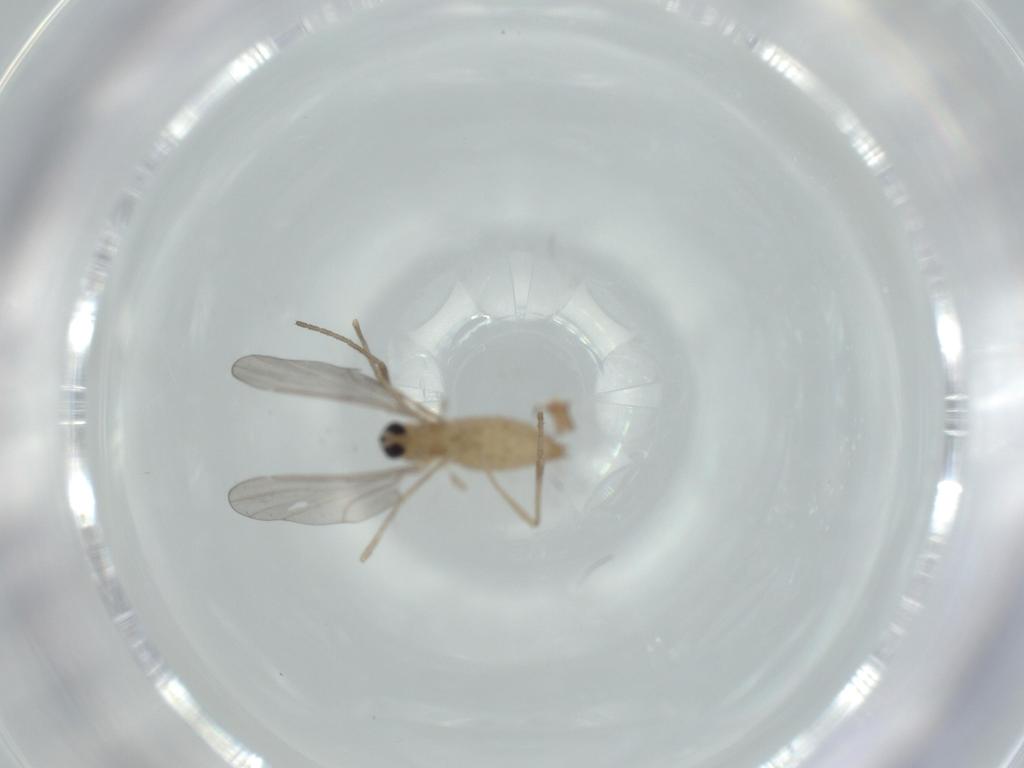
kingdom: Animalia
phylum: Arthropoda
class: Insecta
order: Diptera
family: Ceratopogonidae
